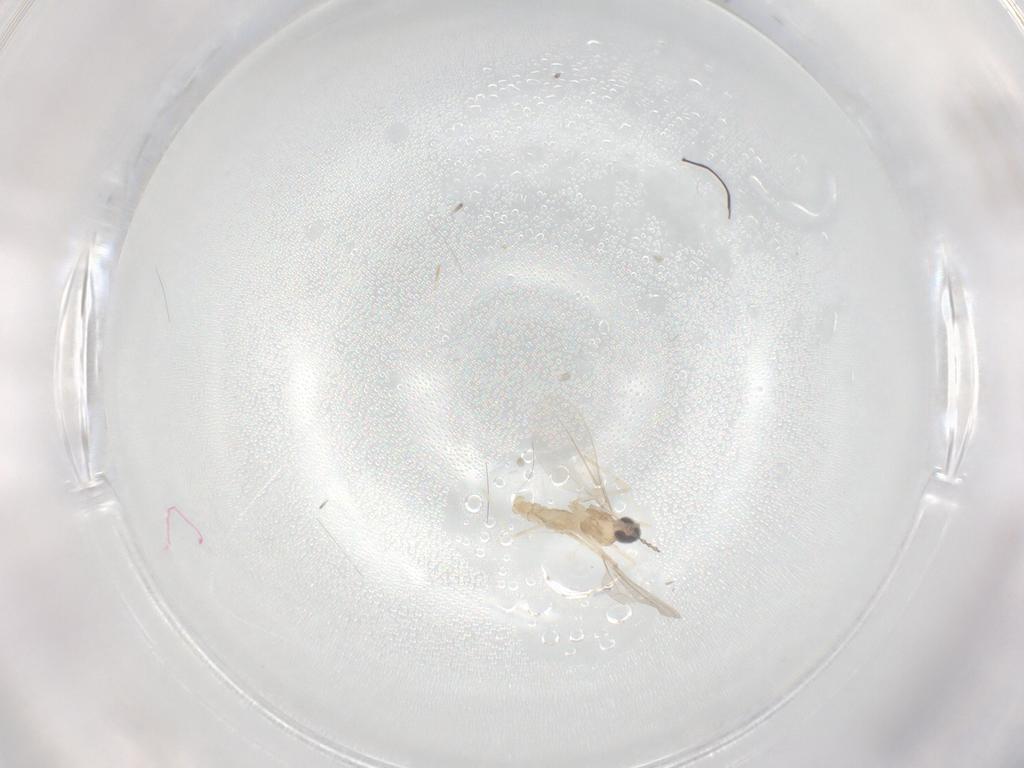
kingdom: Animalia
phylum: Arthropoda
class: Insecta
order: Diptera
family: Cecidomyiidae
